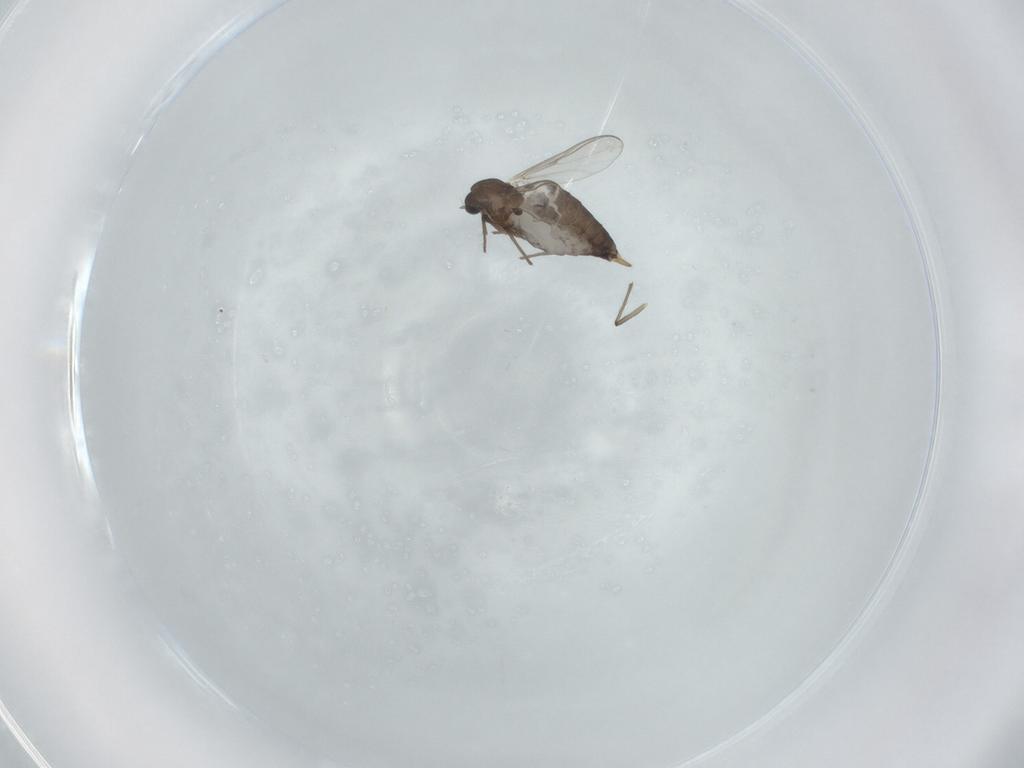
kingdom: Animalia
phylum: Arthropoda
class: Insecta
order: Diptera
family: Chironomidae
